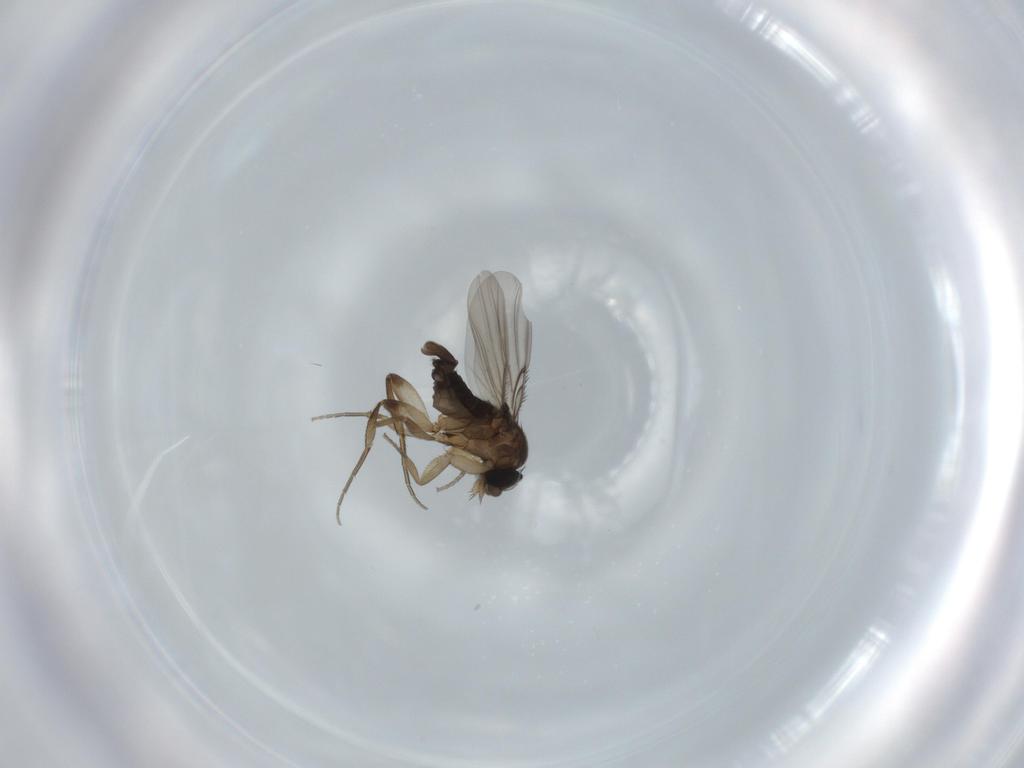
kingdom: Animalia
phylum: Arthropoda
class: Insecta
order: Diptera
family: Phoridae
